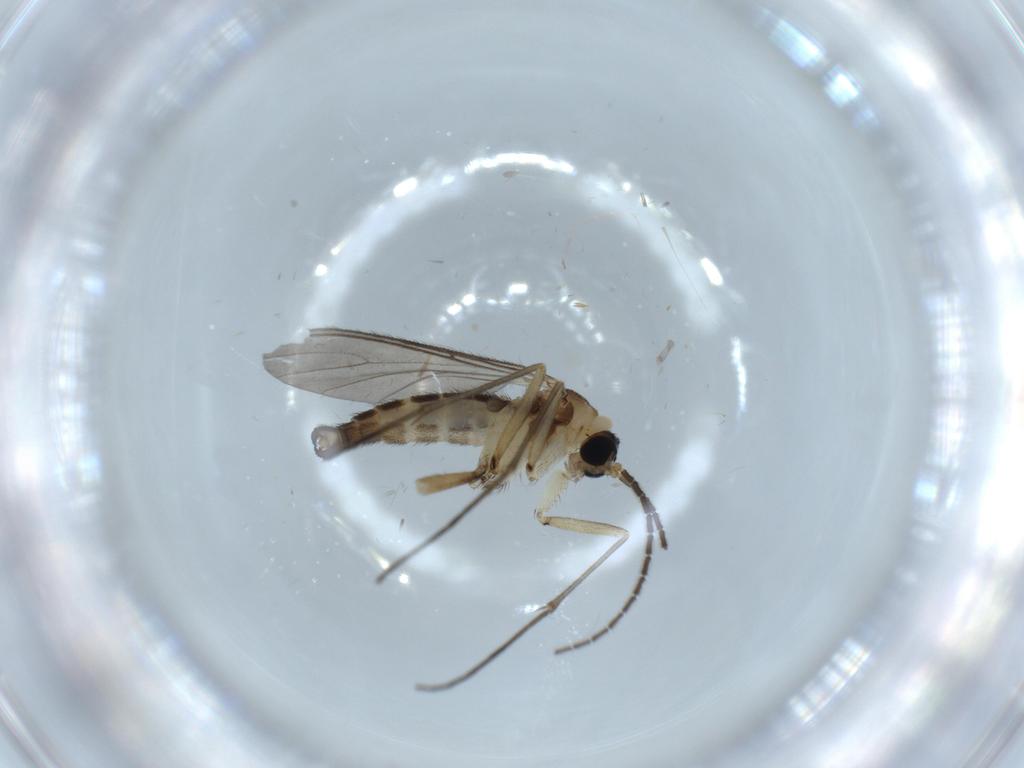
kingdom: Animalia
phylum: Arthropoda
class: Insecta
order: Diptera
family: Sciaridae
